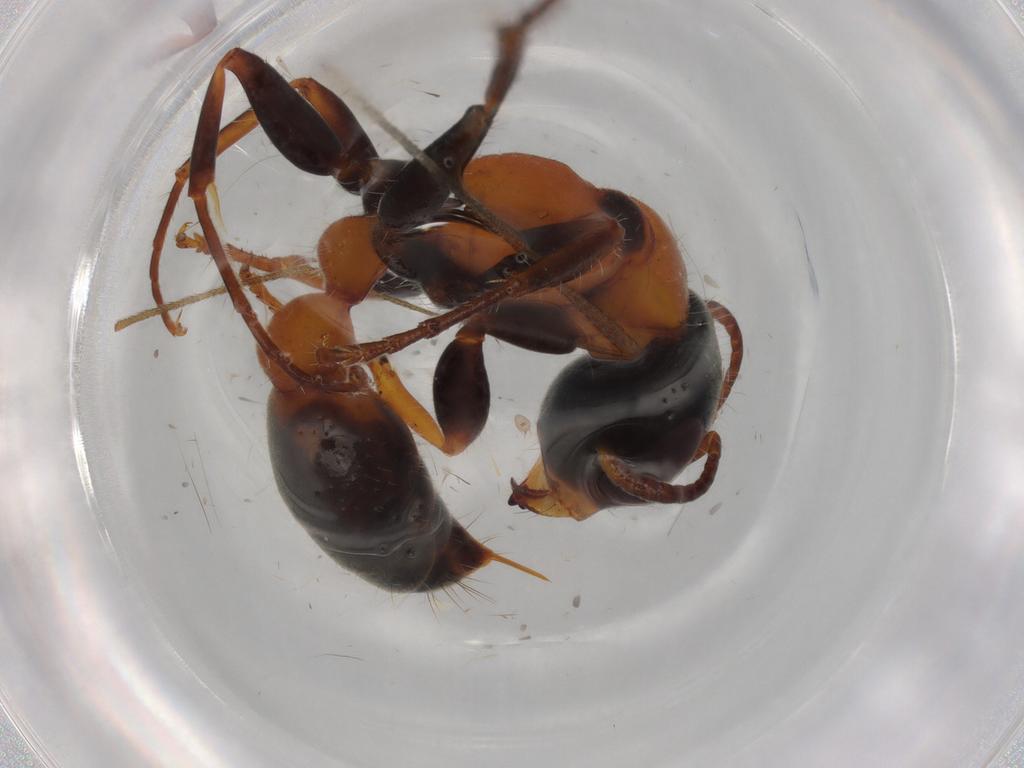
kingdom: Animalia
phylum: Arthropoda
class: Insecta
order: Hymenoptera
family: Formicidae
